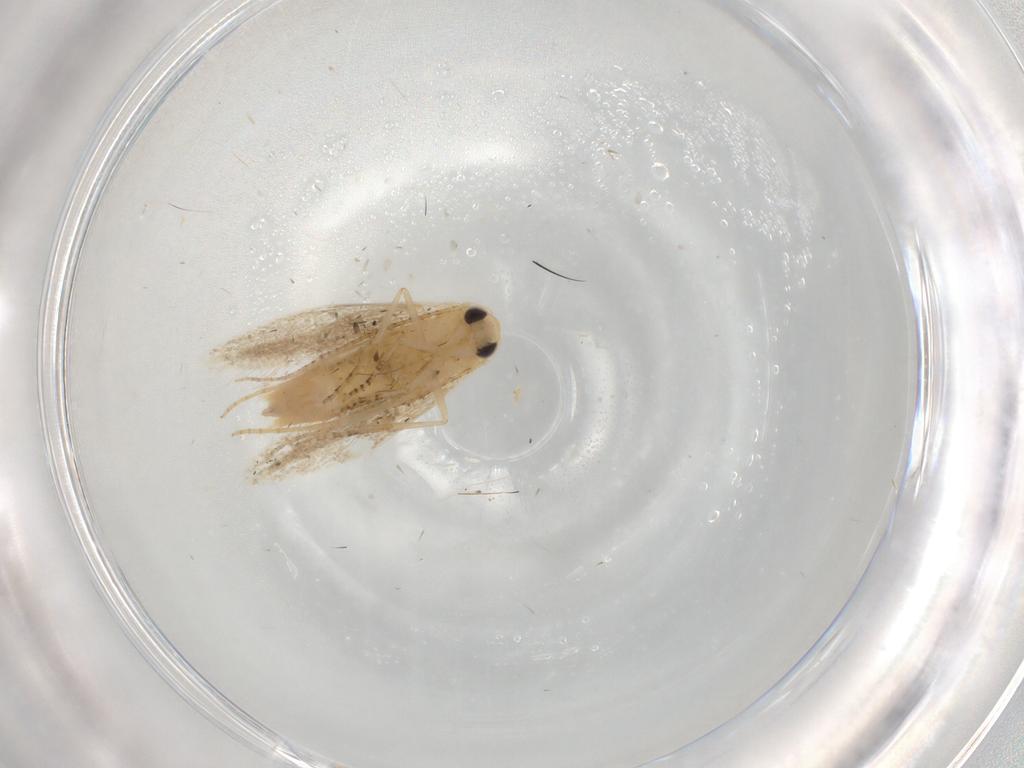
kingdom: Animalia
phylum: Arthropoda
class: Insecta
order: Lepidoptera
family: Bucculatricidae
